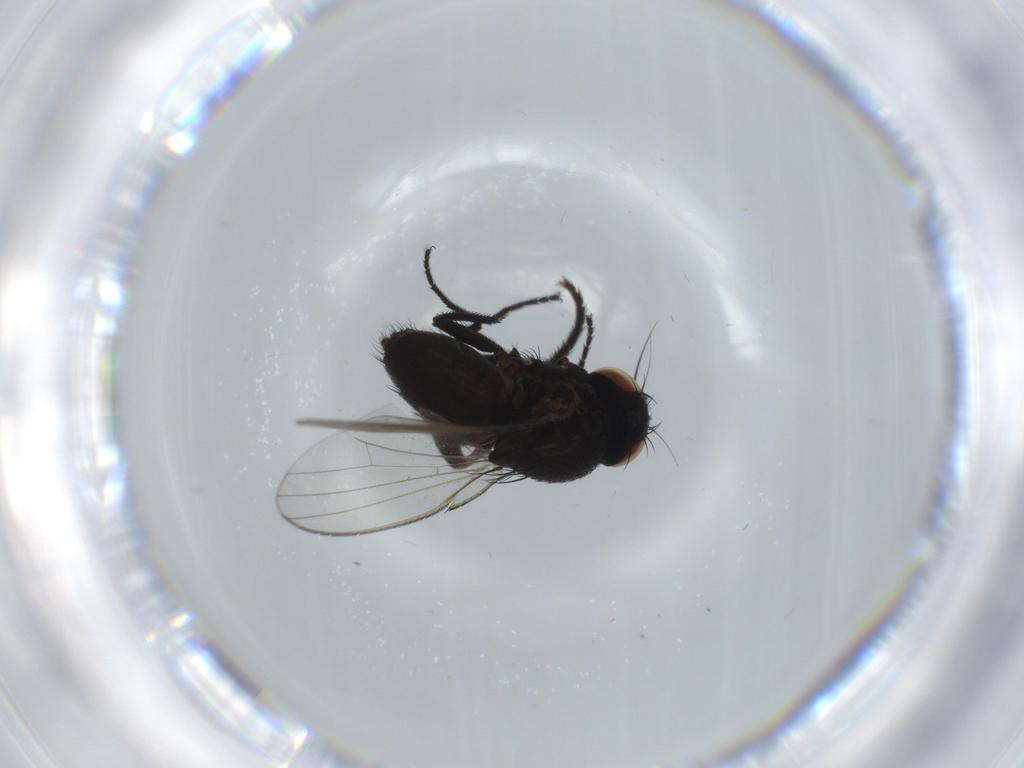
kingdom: Animalia
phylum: Arthropoda
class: Insecta
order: Diptera
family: Milichiidae
